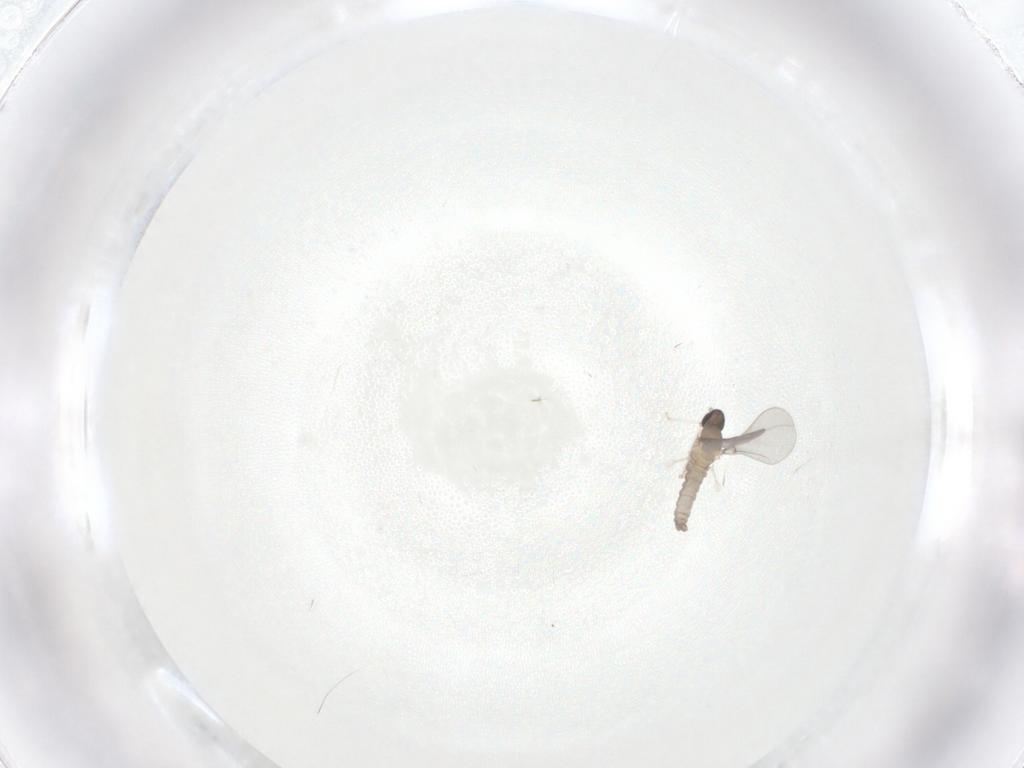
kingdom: Animalia
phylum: Arthropoda
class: Insecta
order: Diptera
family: Cecidomyiidae
